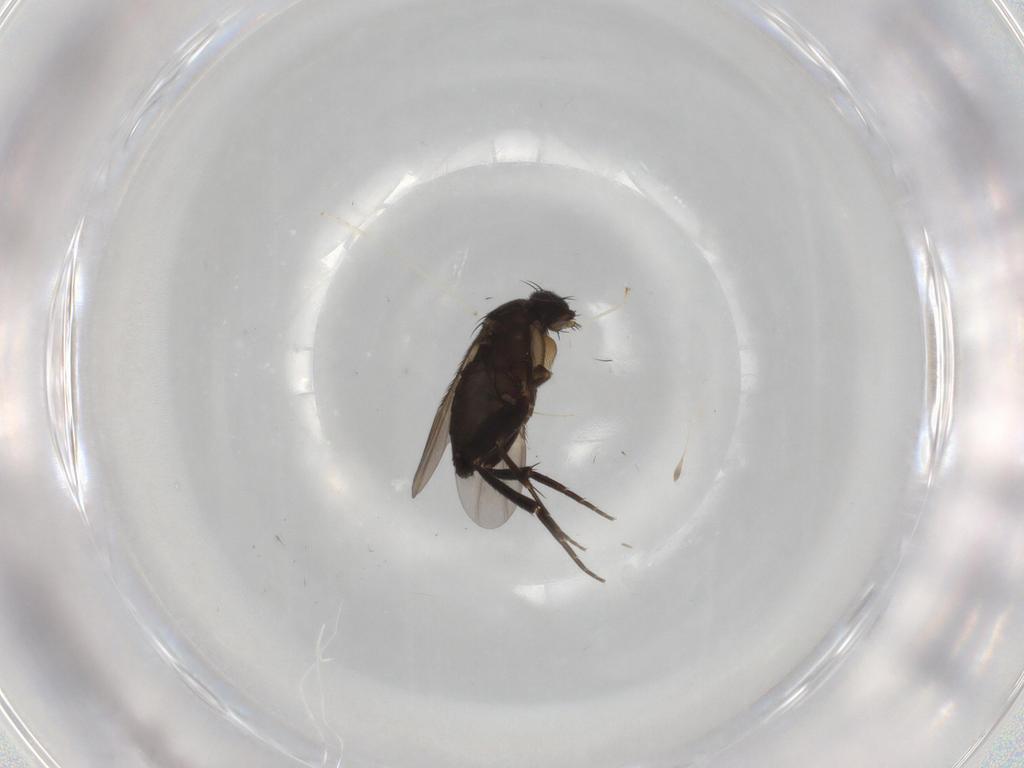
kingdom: Animalia
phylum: Arthropoda
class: Insecta
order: Diptera
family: Phoridae
